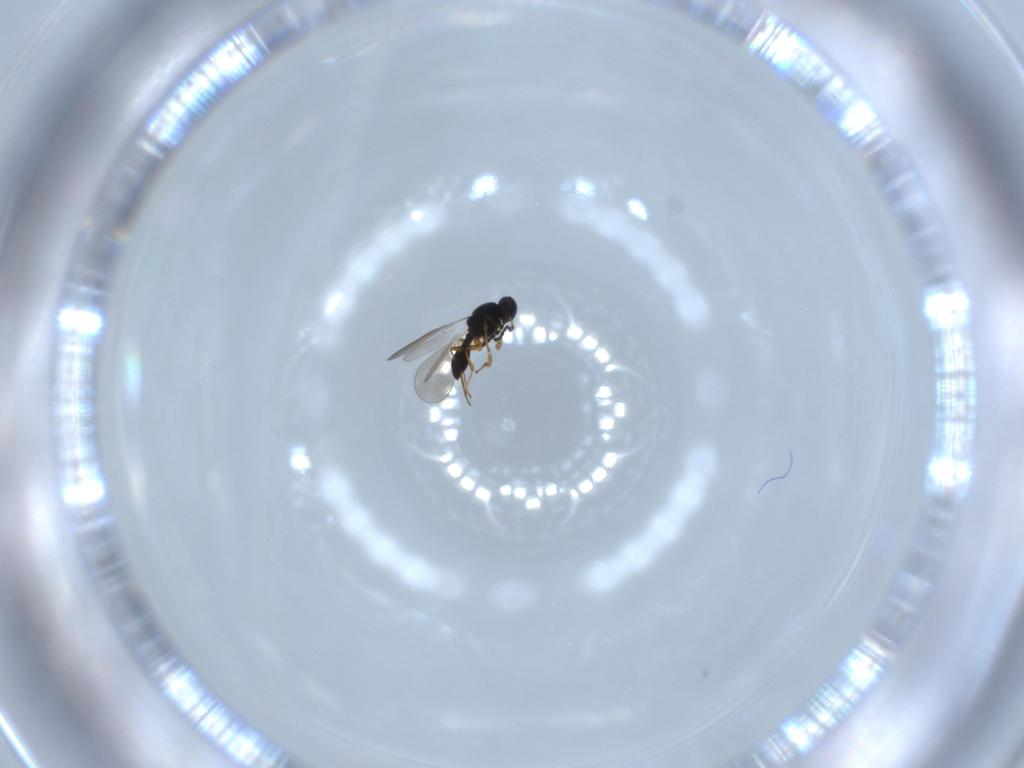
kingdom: Animalia
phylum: Arthropoda
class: Insecta
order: Hymenoptera
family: Platygastridae
